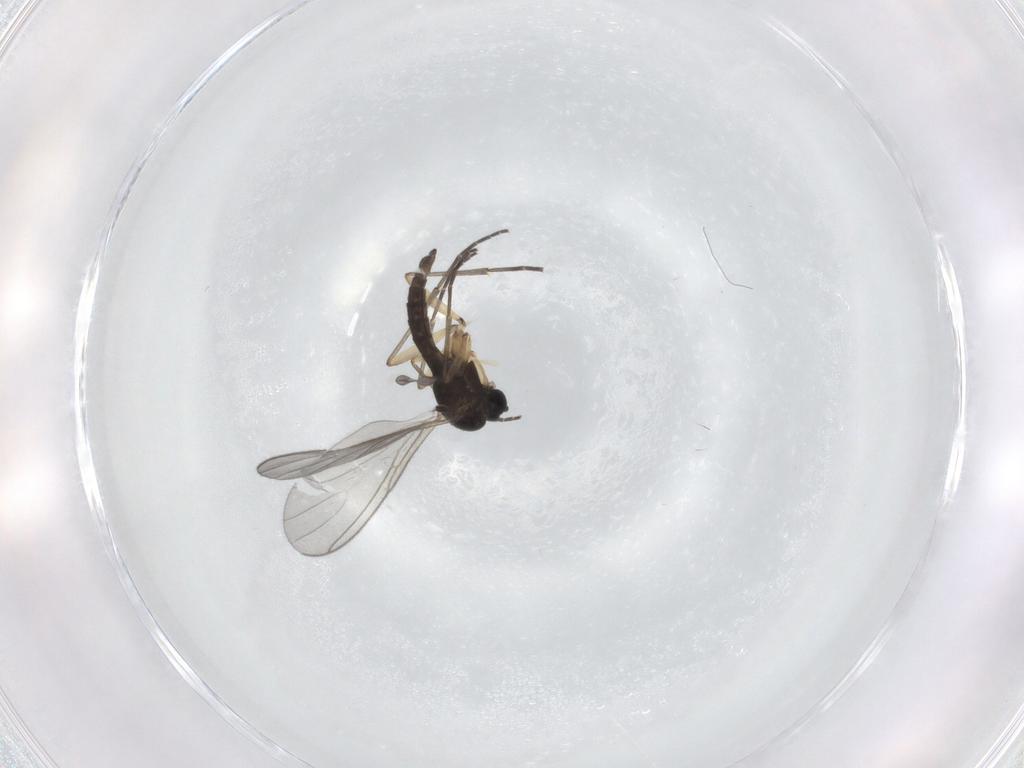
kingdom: Animalia
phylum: Arthropoda
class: Insecta
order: Diptera
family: Sciaridae
